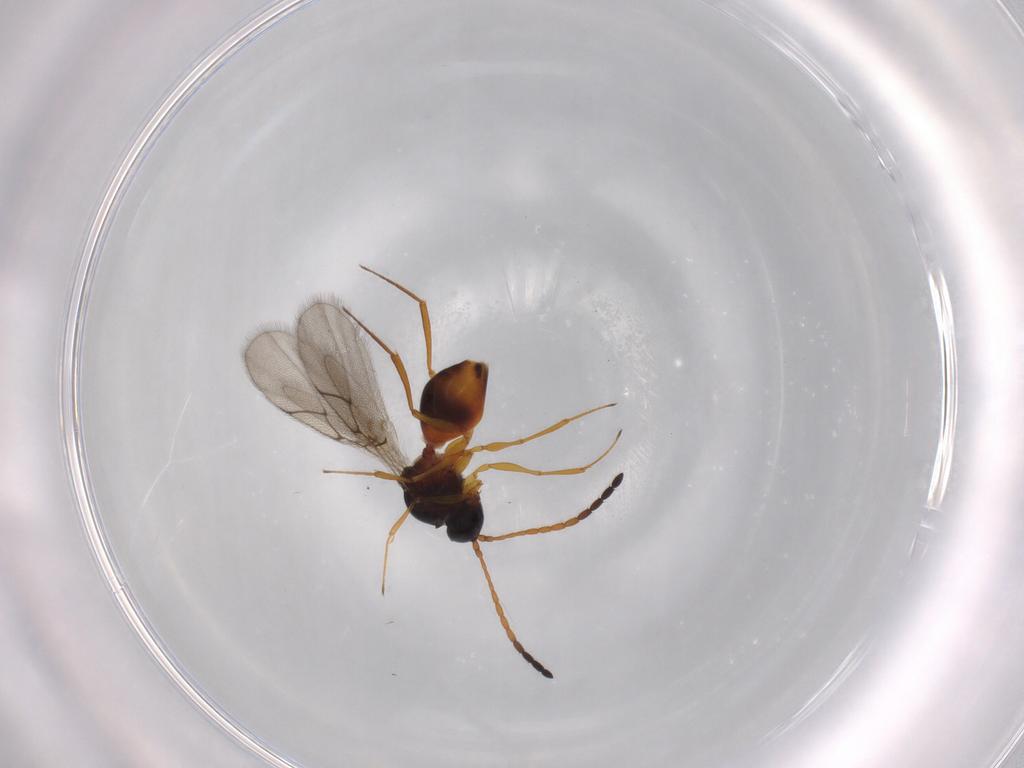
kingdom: Animalia
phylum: Arthropoda
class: Insecta
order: Hymenoptera
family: Figitidae
